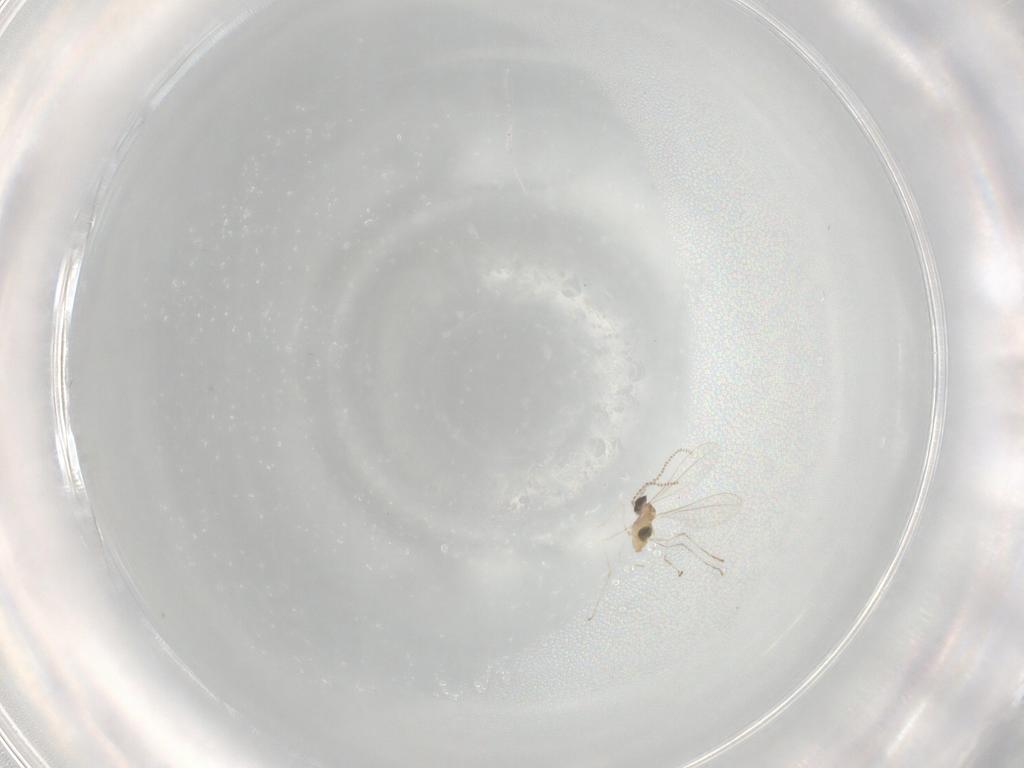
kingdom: Animalia
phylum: Arthropoda
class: Insecta
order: Diptera
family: Cecidomyiidae
